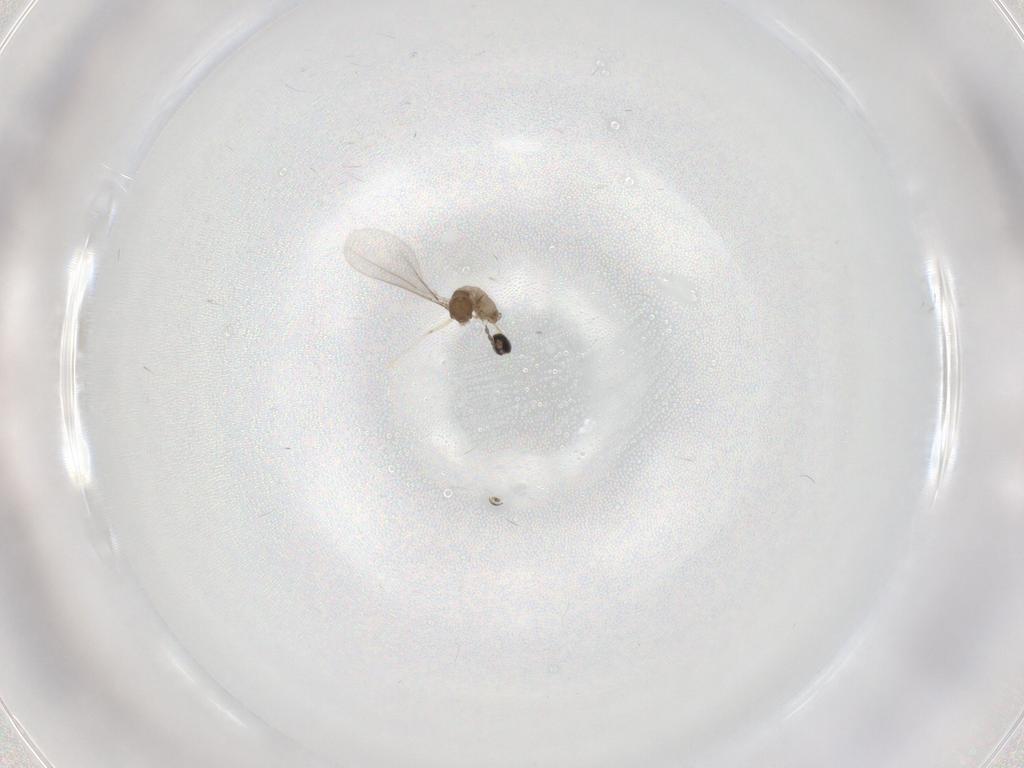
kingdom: Animalia
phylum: Arthropoda
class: Insecta
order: Diptera
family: Cecidomyiidae
